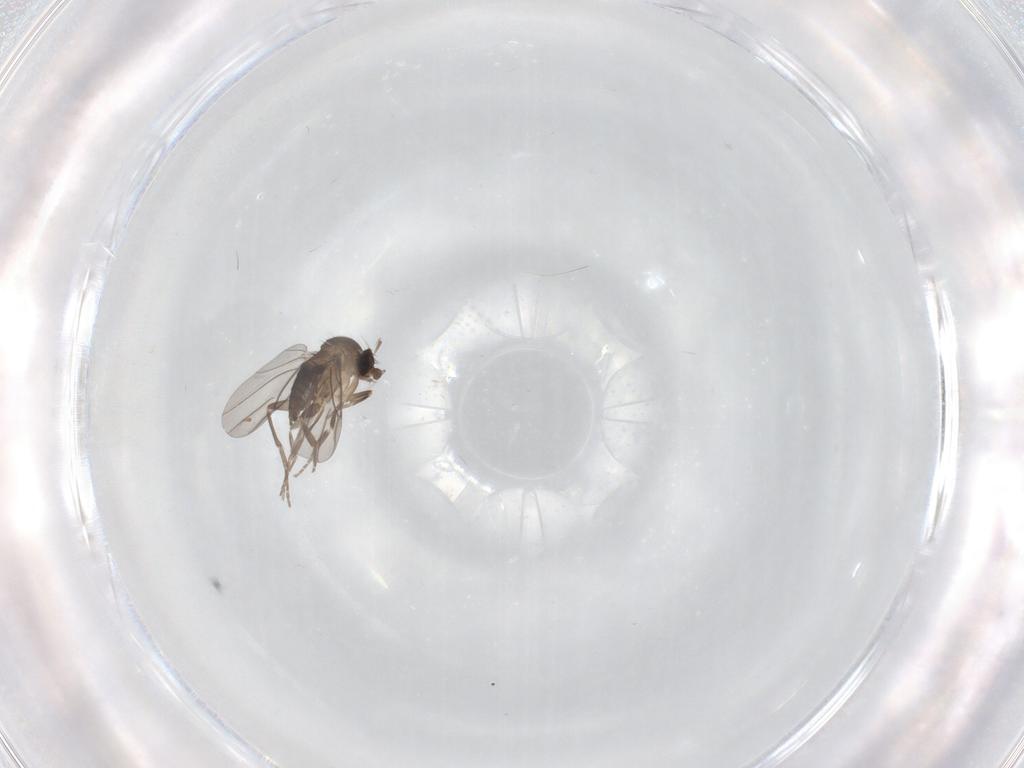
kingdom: Animalia
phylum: Arthropoda
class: Insecta
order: Diptera
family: Phoridae
